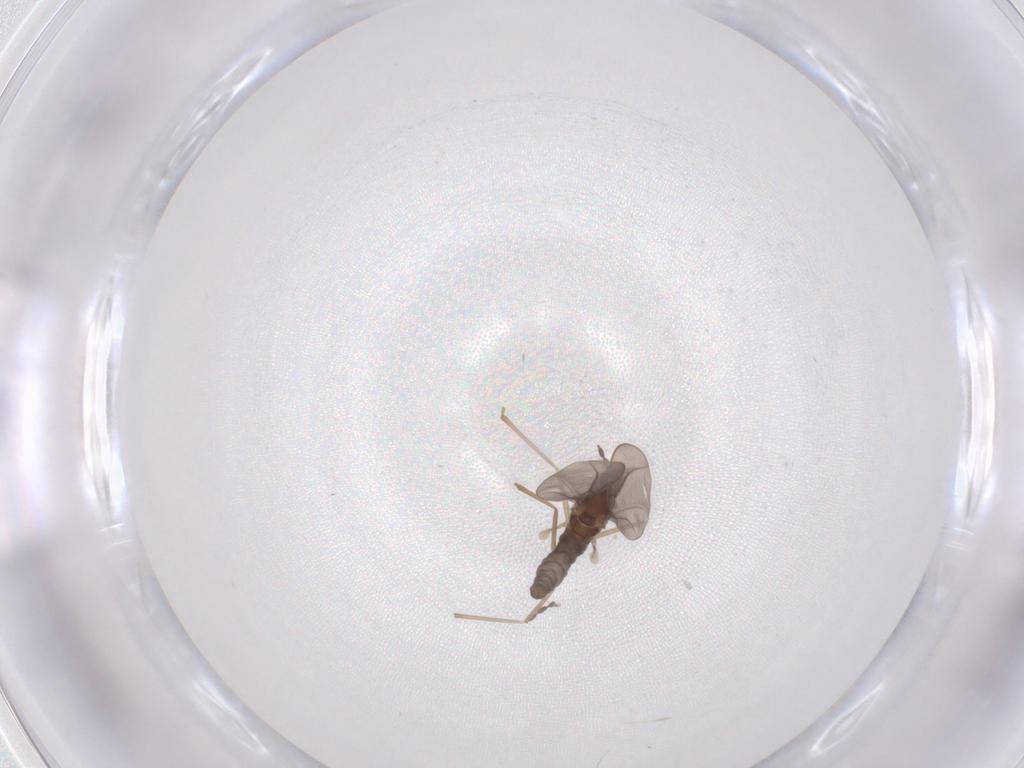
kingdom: Animalia
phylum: Arthropoda
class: Insecta
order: Diptera
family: Cecidomyiidae
